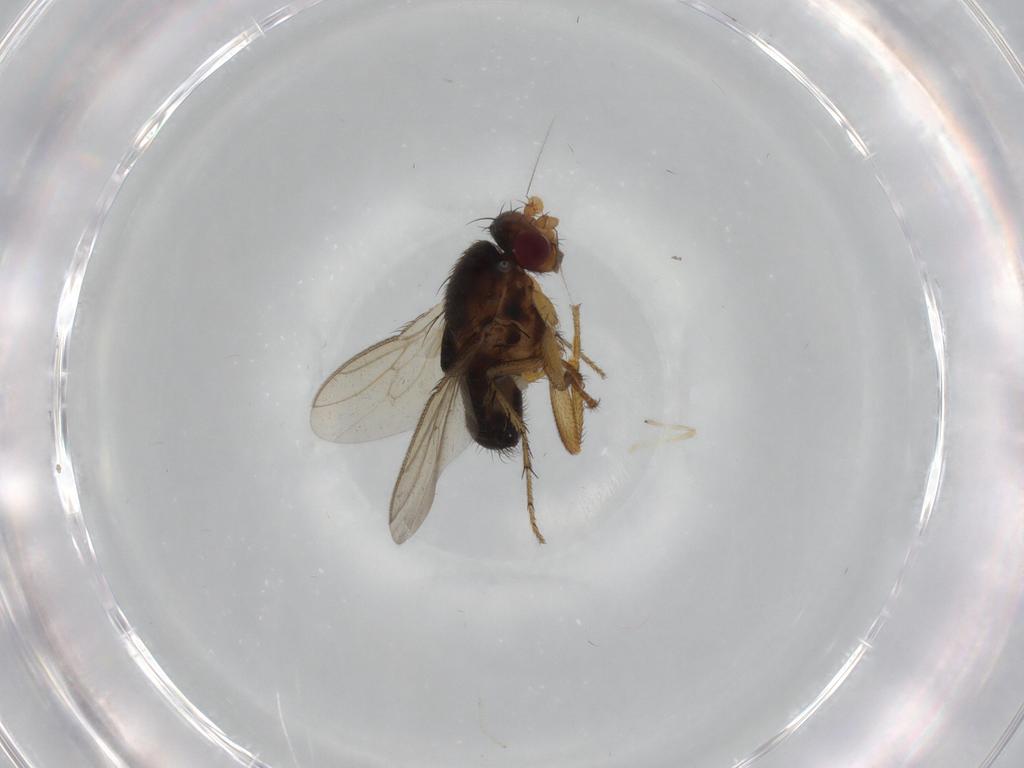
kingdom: Animalia
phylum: Arthropoda
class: Insecta
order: Diptera
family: Sphaeroceridae
